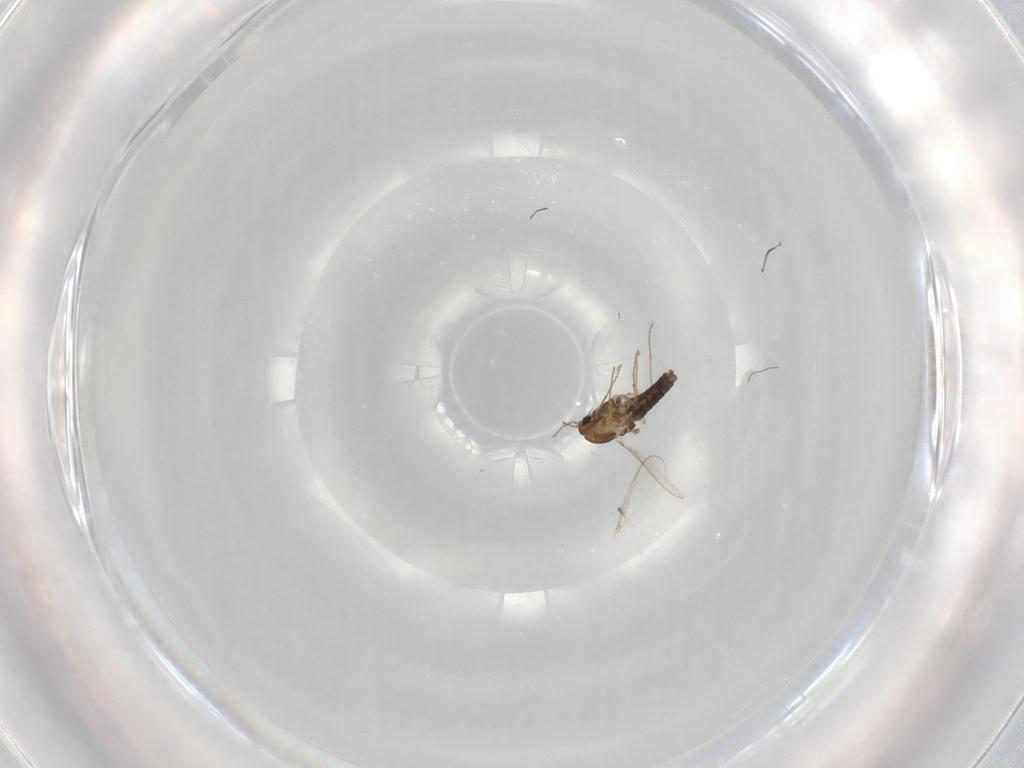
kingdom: Animalia
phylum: Arthropoda
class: Insecta
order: Diptera
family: Chironomidae
